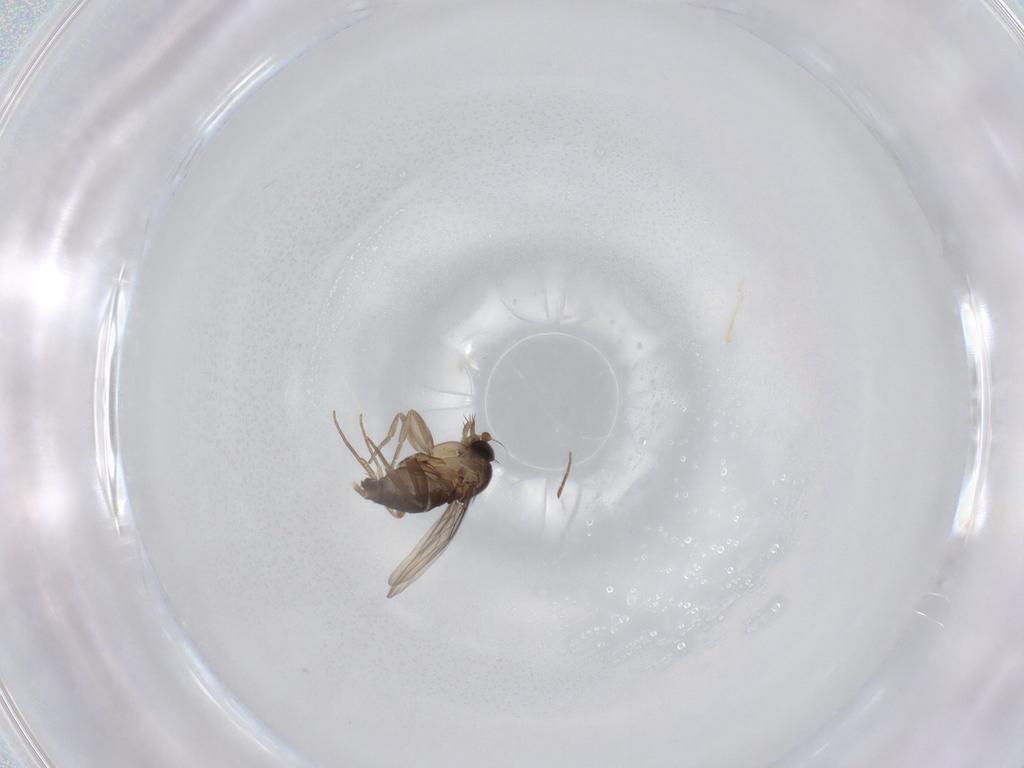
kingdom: Animalia
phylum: Arthropoda
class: Insecta
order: Diptera
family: Phoridae
